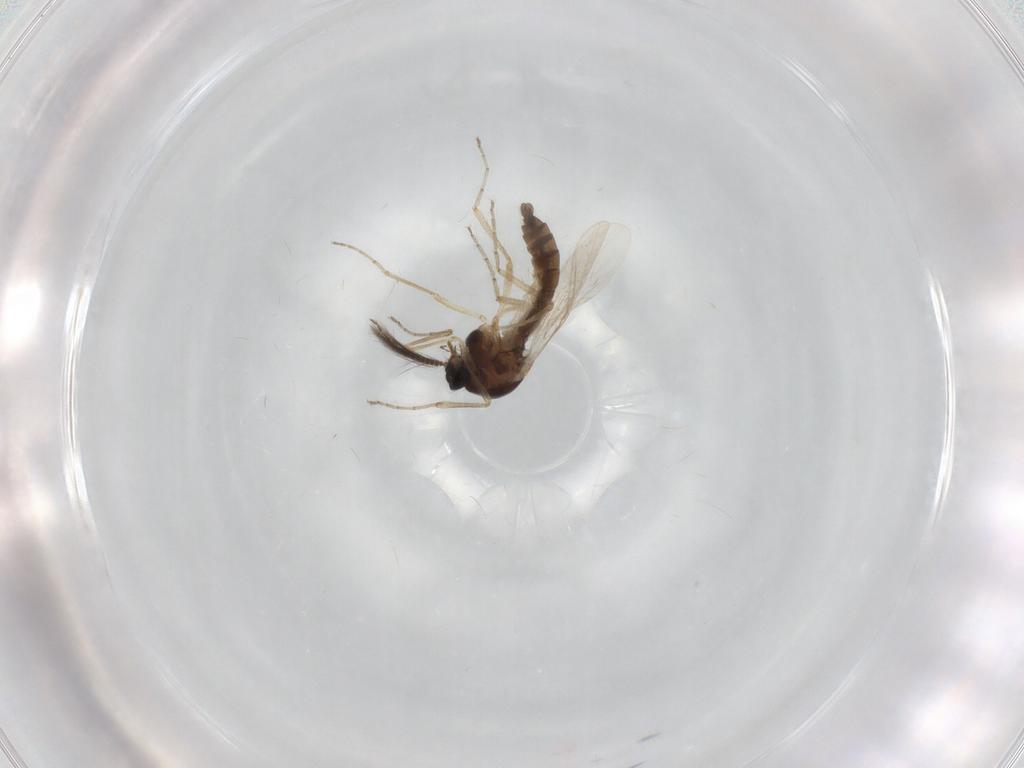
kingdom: Animalia
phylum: Arthropoda
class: Insecta
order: Diptera
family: Ceratopogonidae
